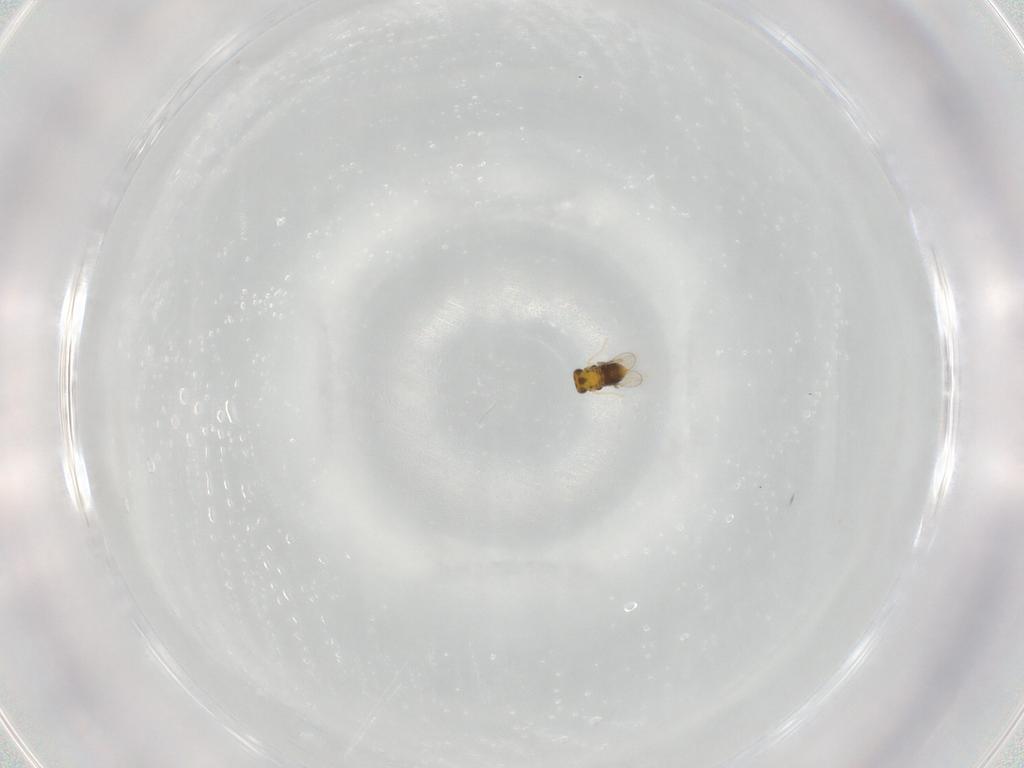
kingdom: Animalia
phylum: Arthropoda
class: Insecta
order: Hymenoptera
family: Aphelinidae
